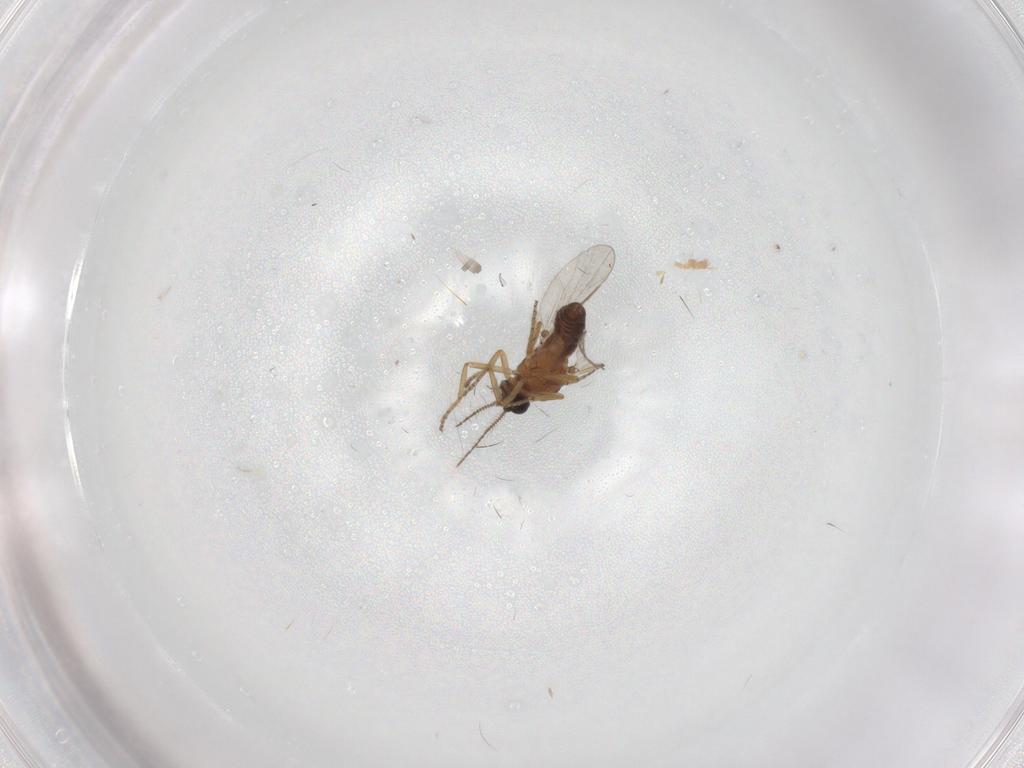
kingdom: Animalia
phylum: Arthropoda
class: Insecta
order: Diptera
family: Ceratopogonidae
